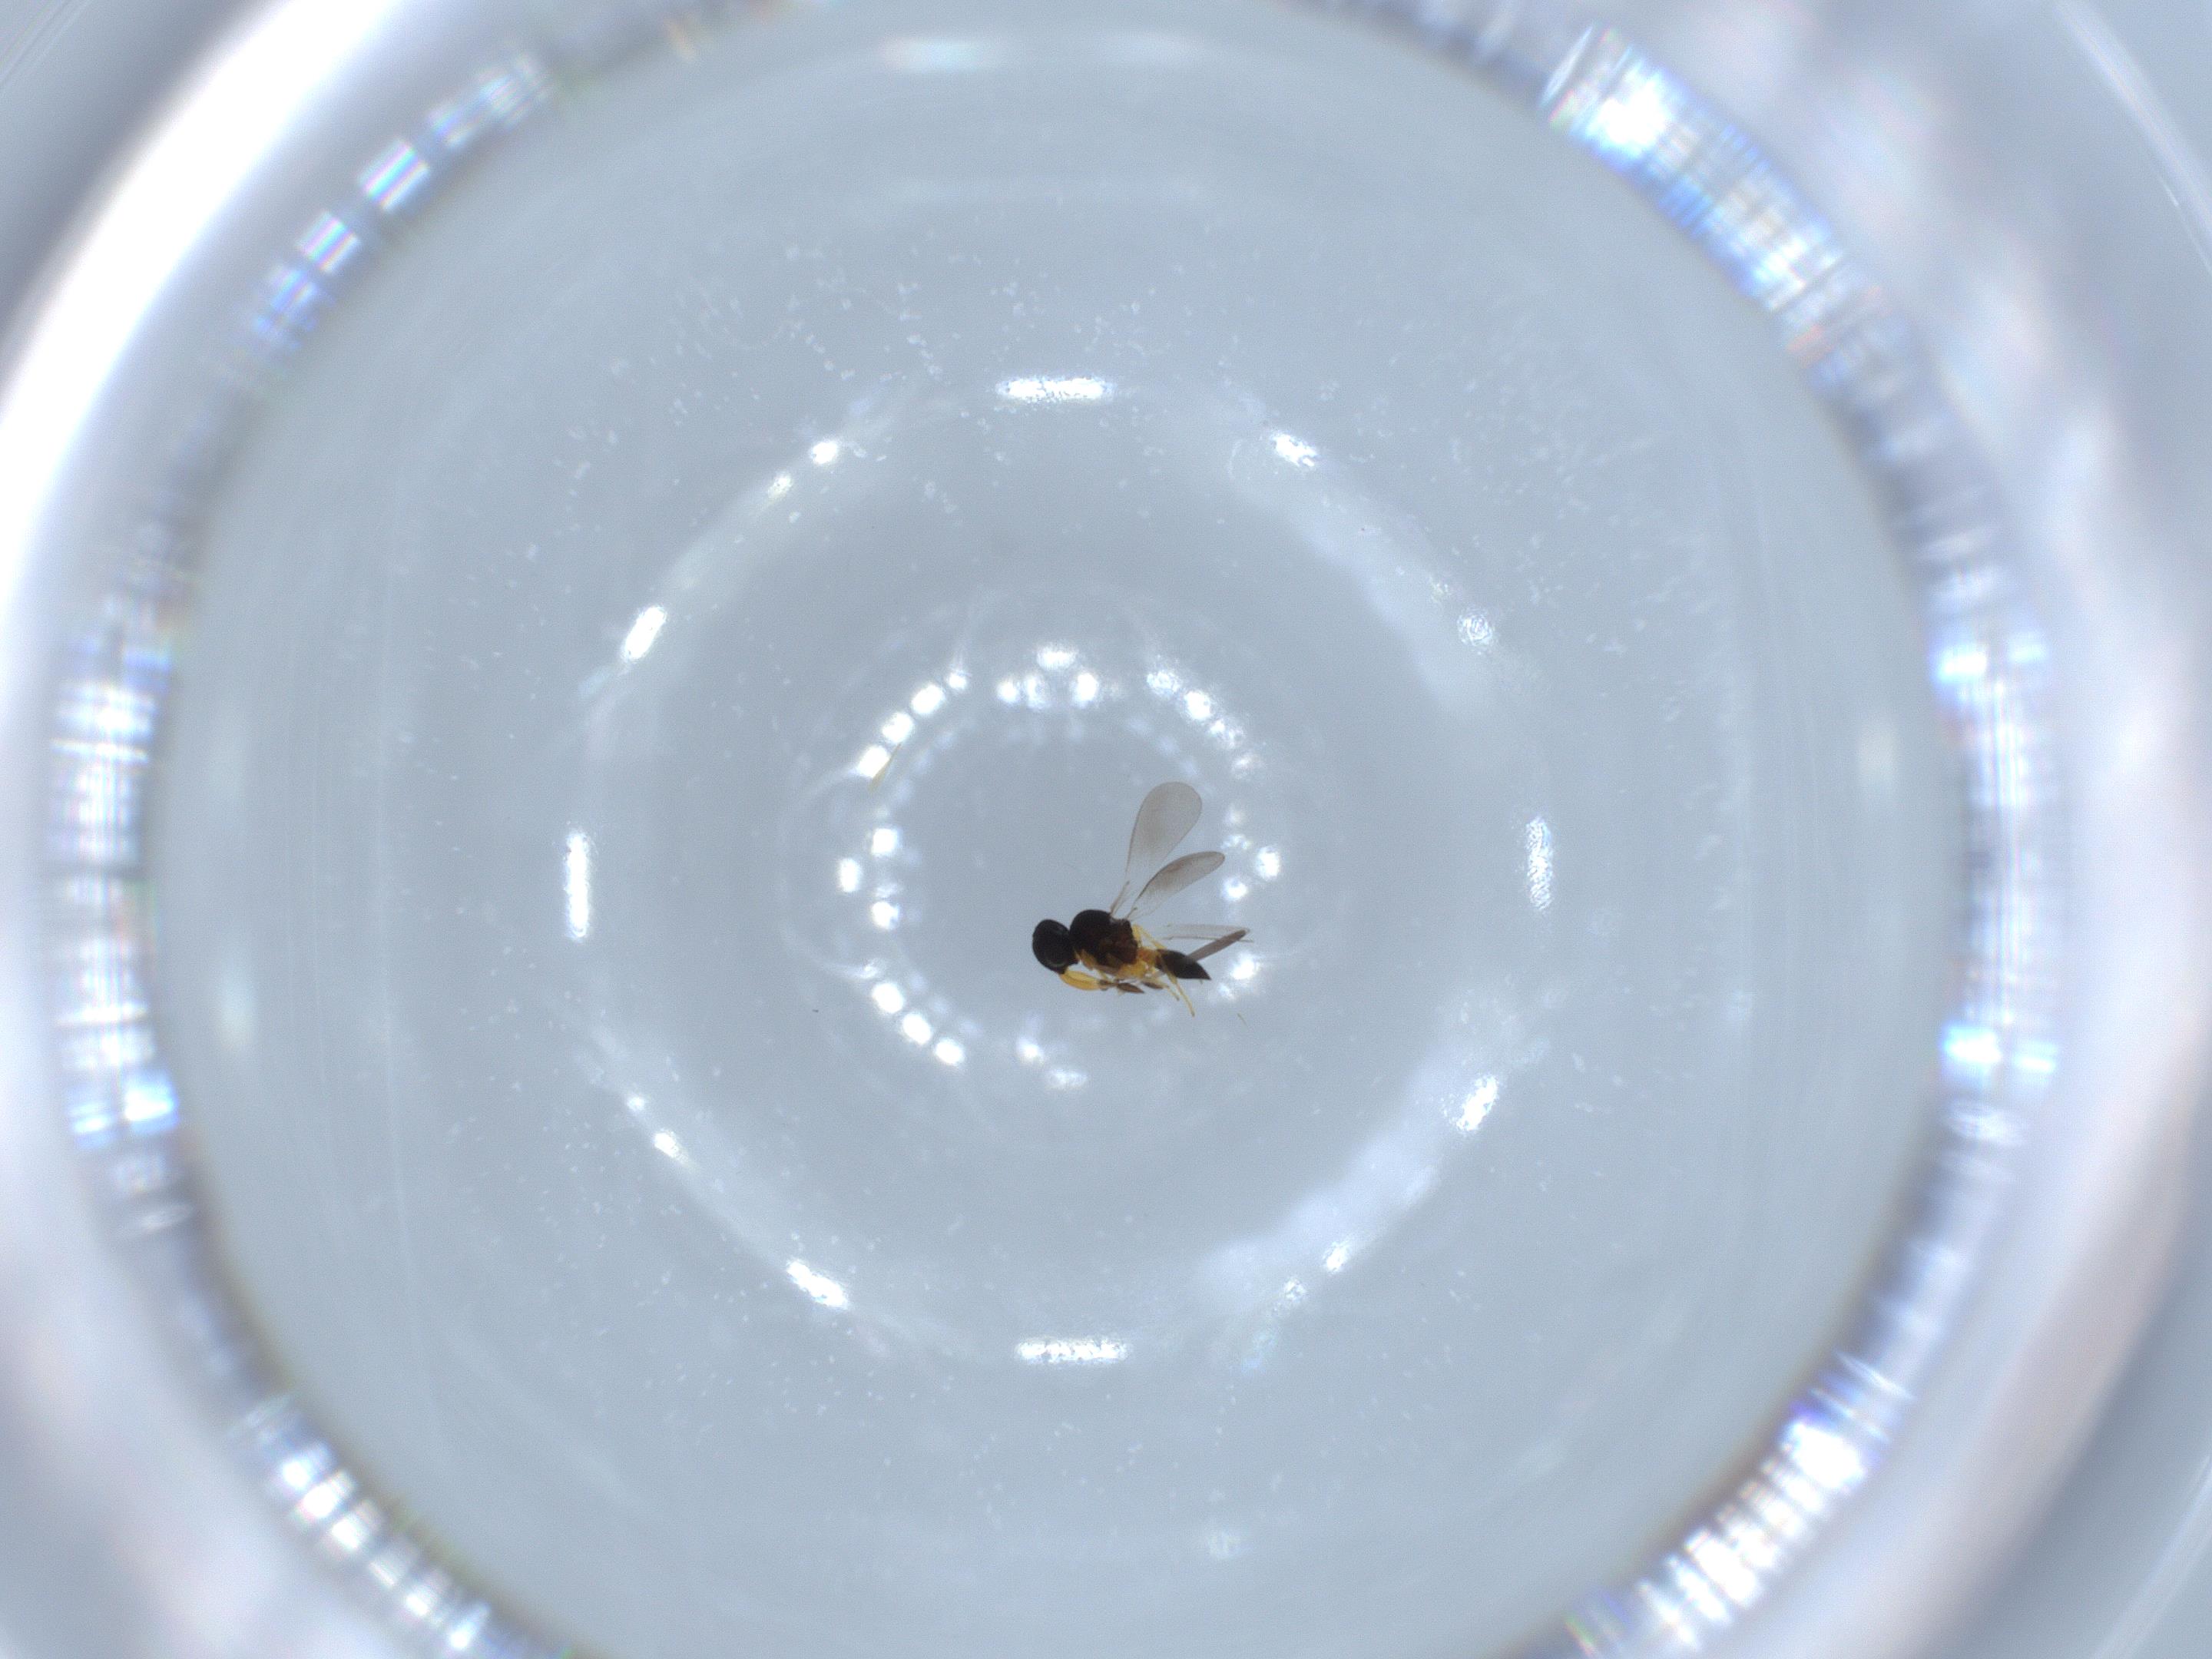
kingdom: Animalia
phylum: Arthropoda
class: Insecta
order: Hymenoptera
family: Platygastridae
